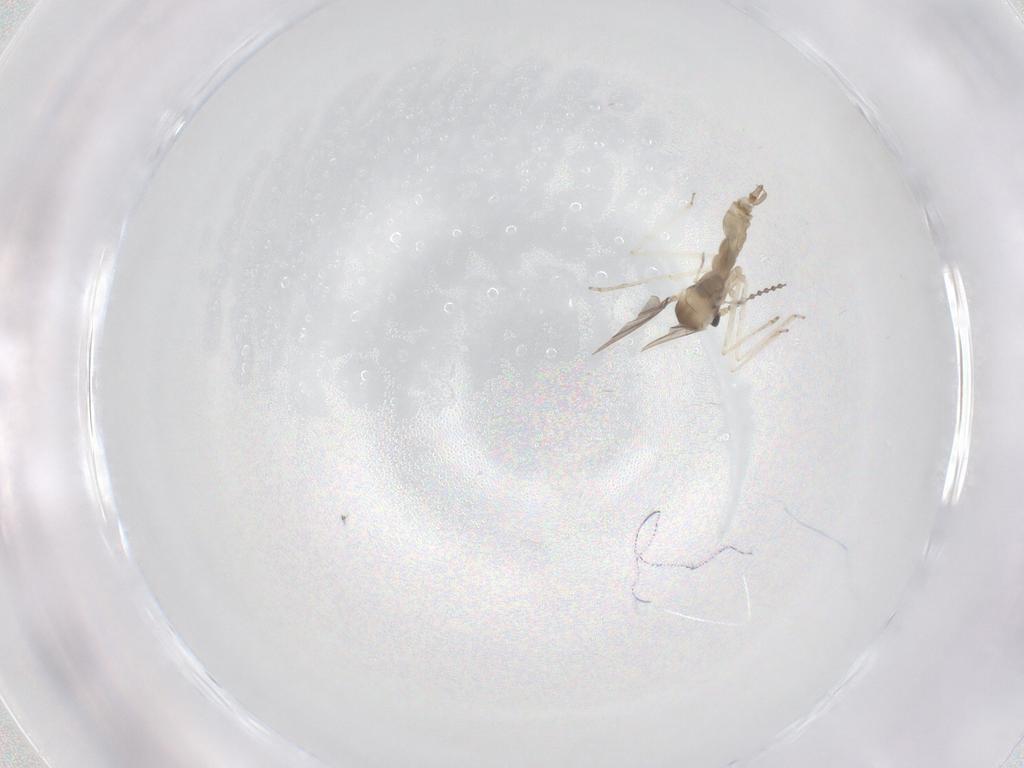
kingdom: Animalia
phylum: Arthropoda
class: Insecta
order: Diptera
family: Cecidomyiidae
